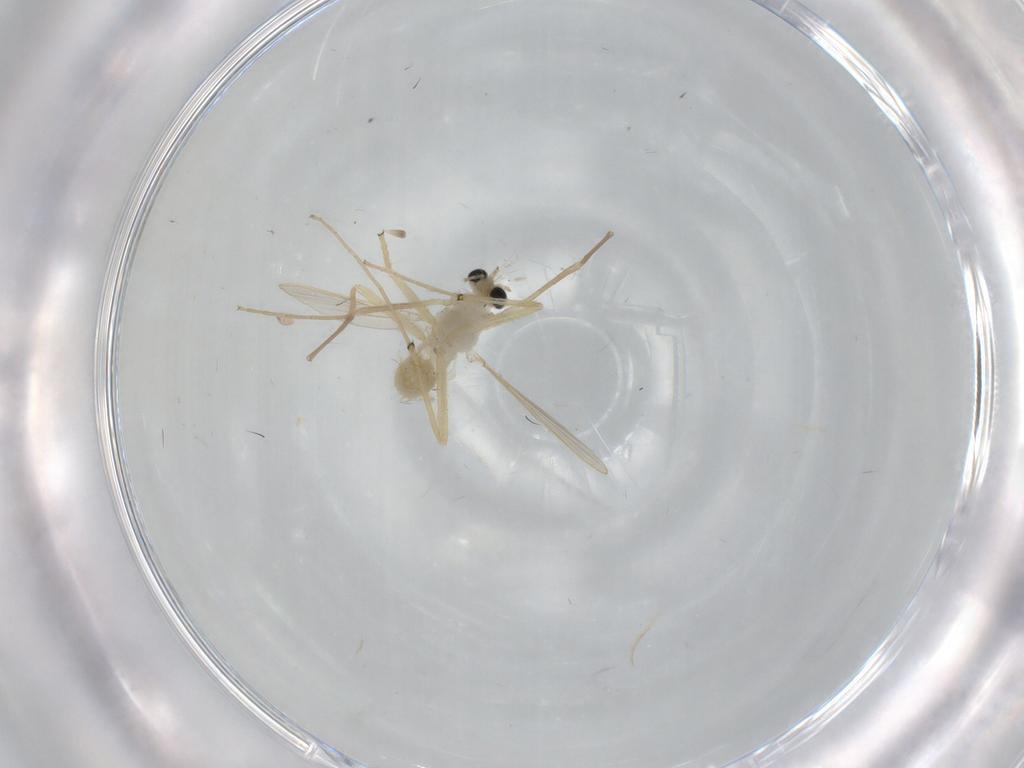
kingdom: Animalia
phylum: Arthropoda
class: Insecta
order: Diptera
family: Chironomidae
